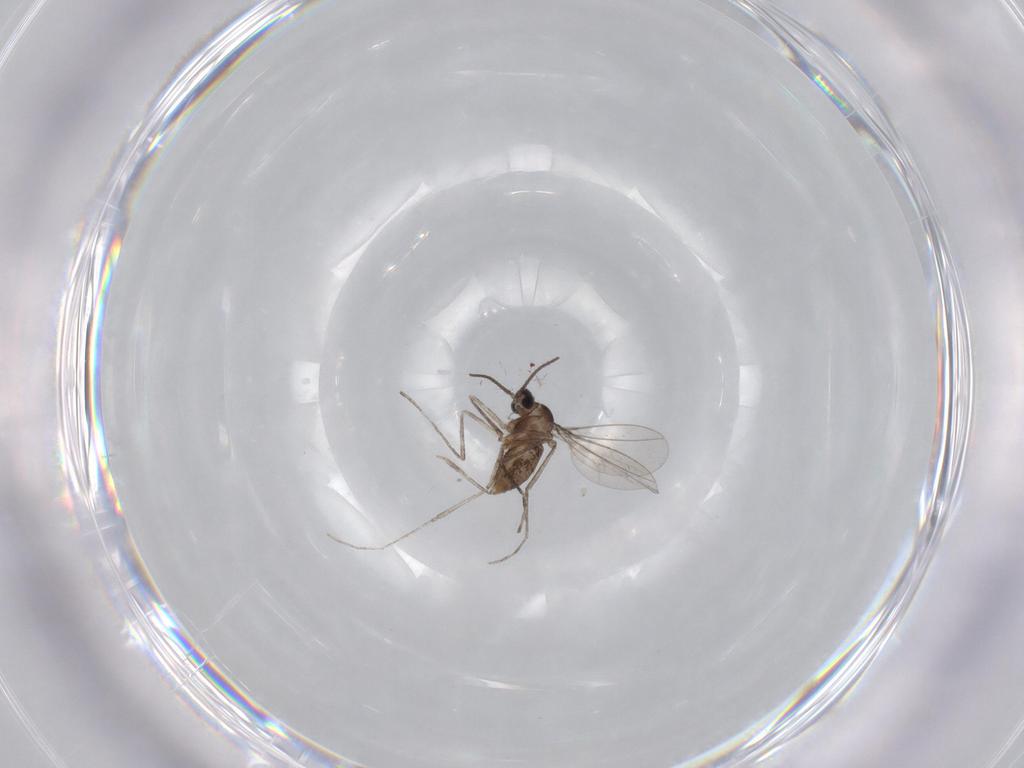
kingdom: Animalia
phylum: Arthropoda
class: Insecta
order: Diptera
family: Cecidomyiidae
